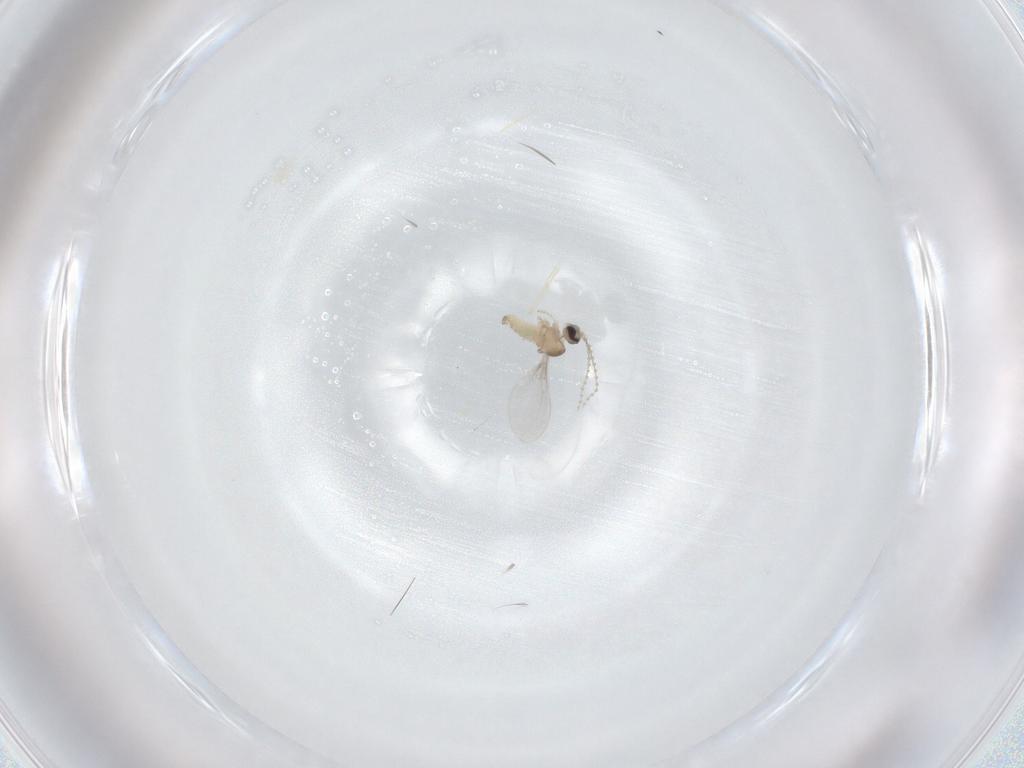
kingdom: Animalia
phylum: Arthropoda
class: Insecta
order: Diptera
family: Cecidomyiidae
